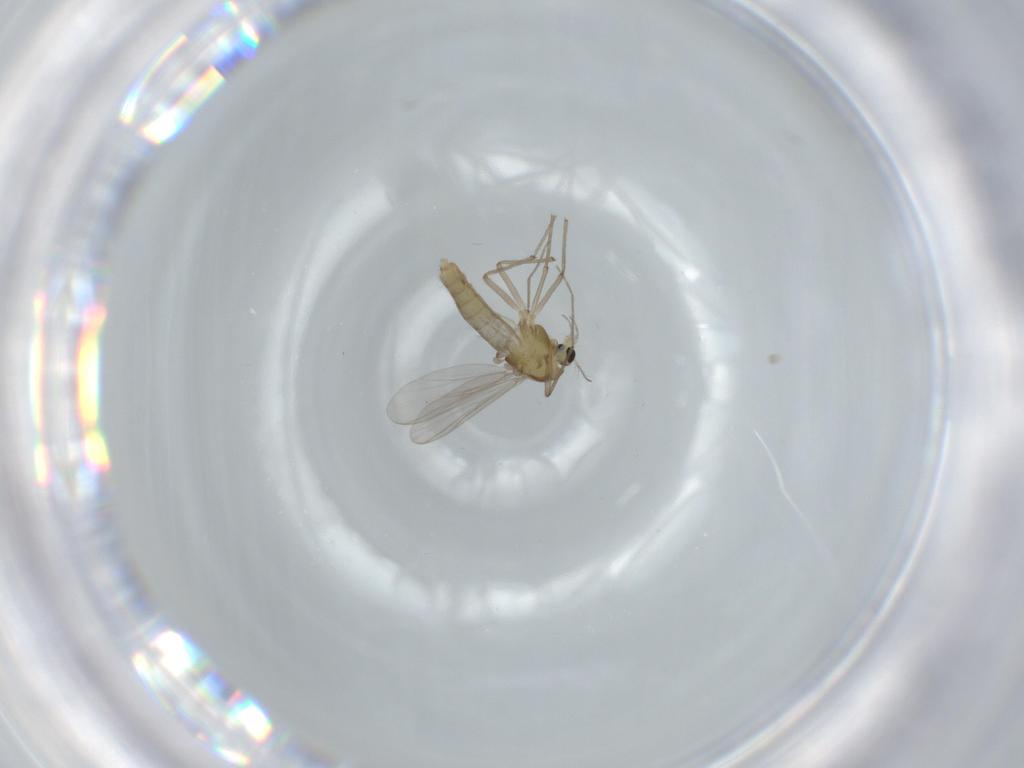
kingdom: Animalia
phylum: Arthropoda
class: Insecta
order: Diptera
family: Chironomidae
